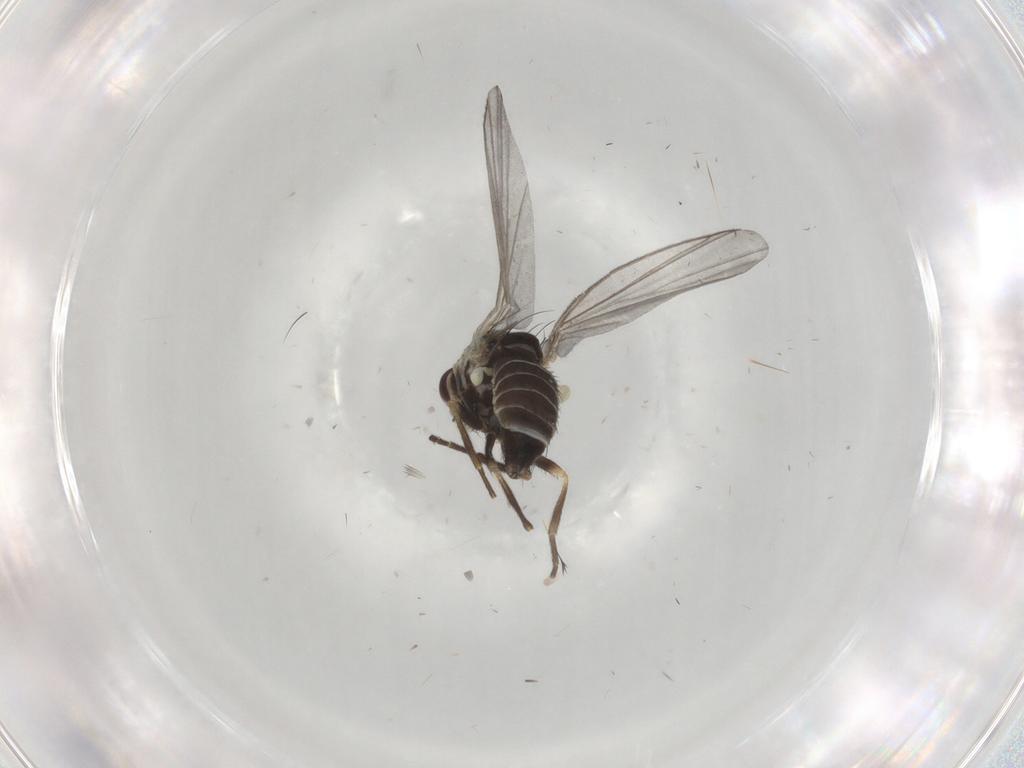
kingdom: Animalia
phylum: Arthropoda
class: Insecta
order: Diptera
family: Agromyzidae
